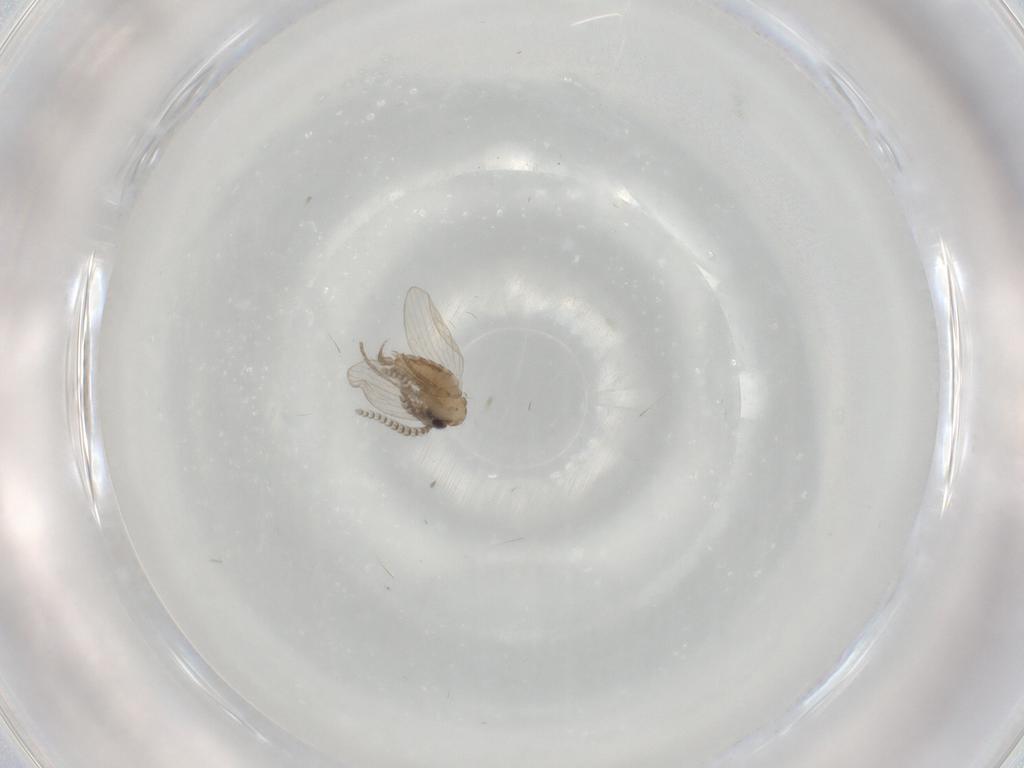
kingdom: Animalia
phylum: Arthropoda
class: Insecta
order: Diptera
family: Psychodidae
